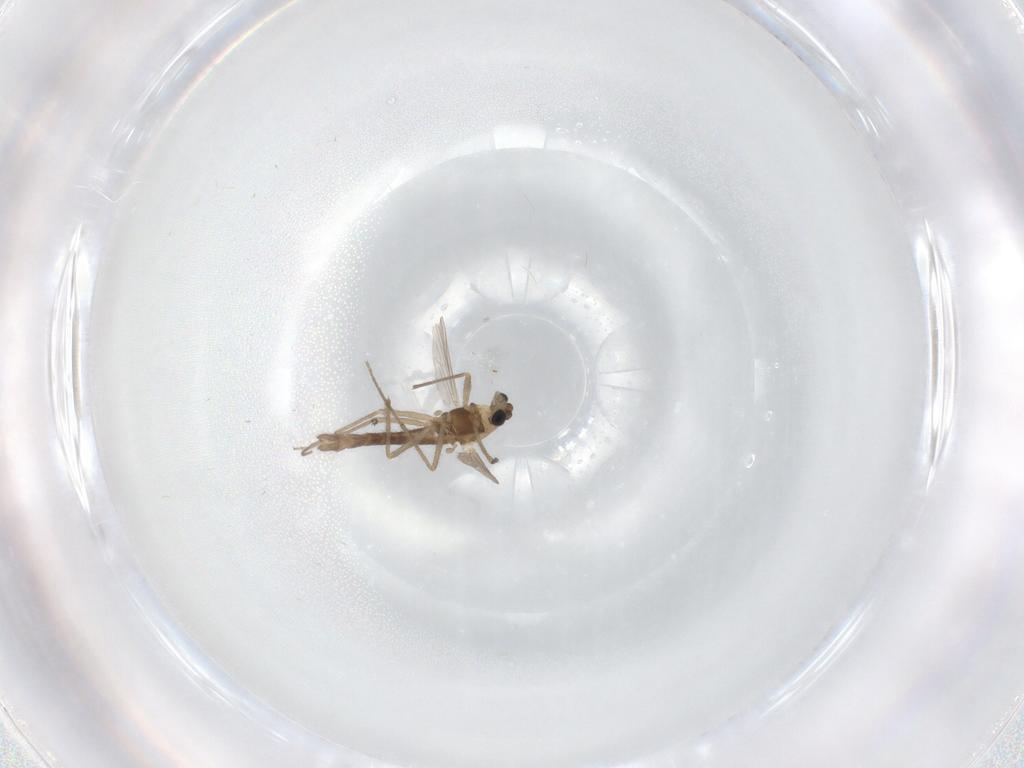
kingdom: Animalia
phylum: Arthropoda
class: Insecta
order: Diptera
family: Chironomidae
